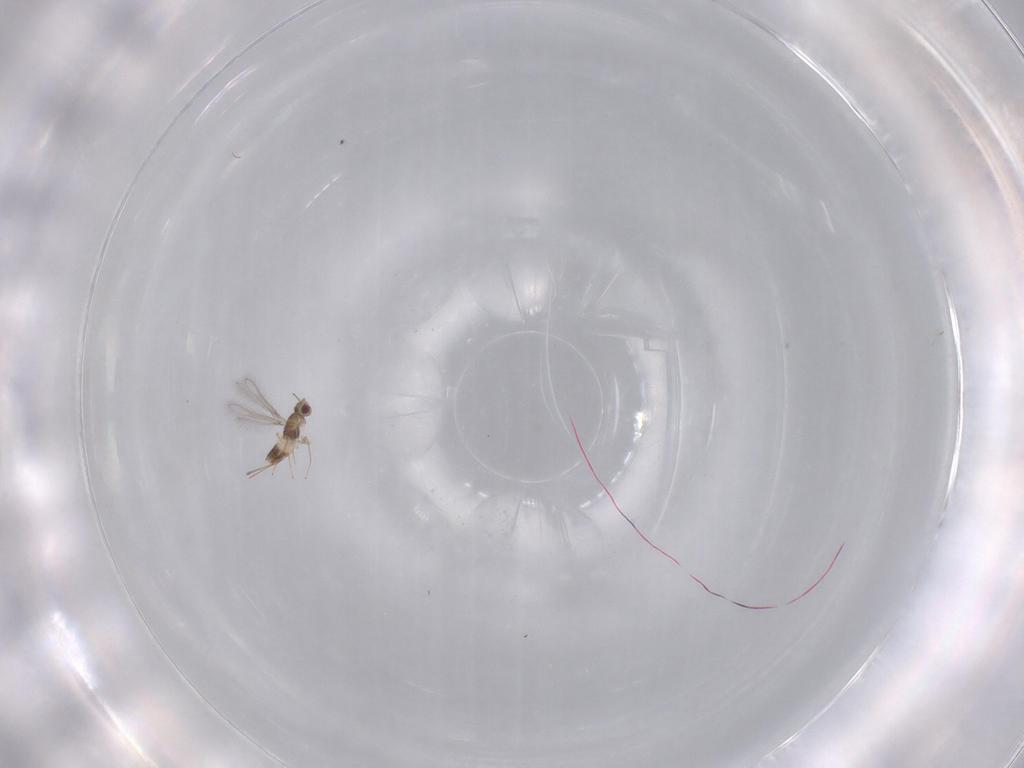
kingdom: Animalia
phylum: Arthropoda
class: Insecta
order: Hymenoptera
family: Mymaridae
